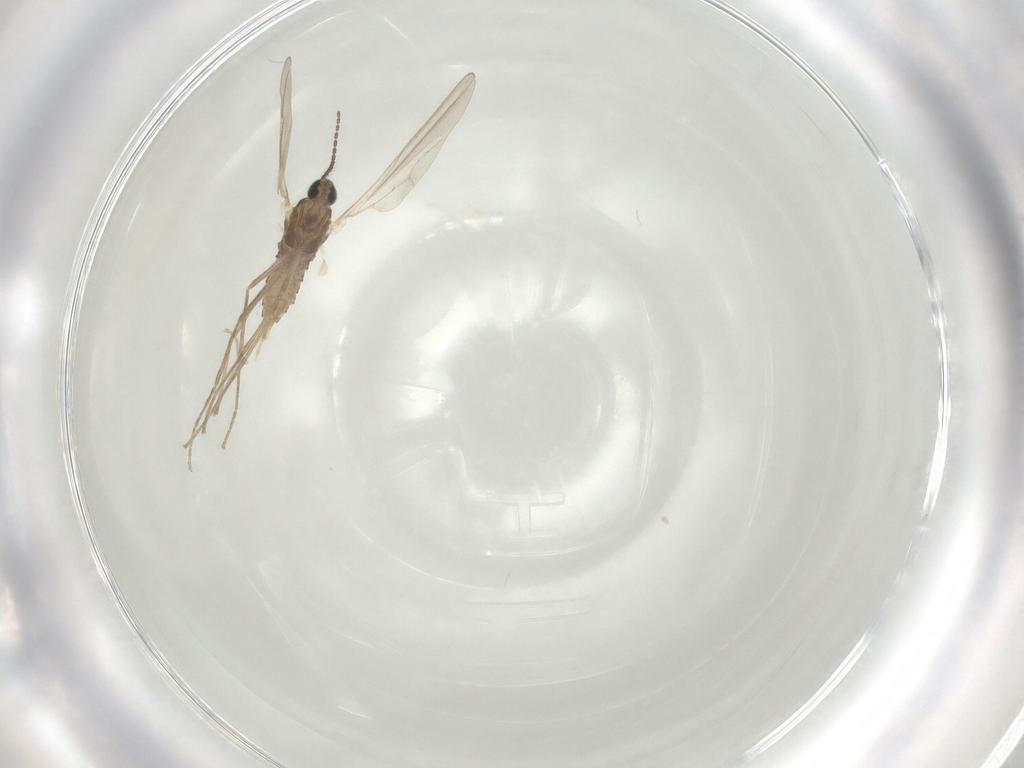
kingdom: Animalia
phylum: Arthropoda
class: Insecta
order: Diptera
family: Cecidomyiidae
